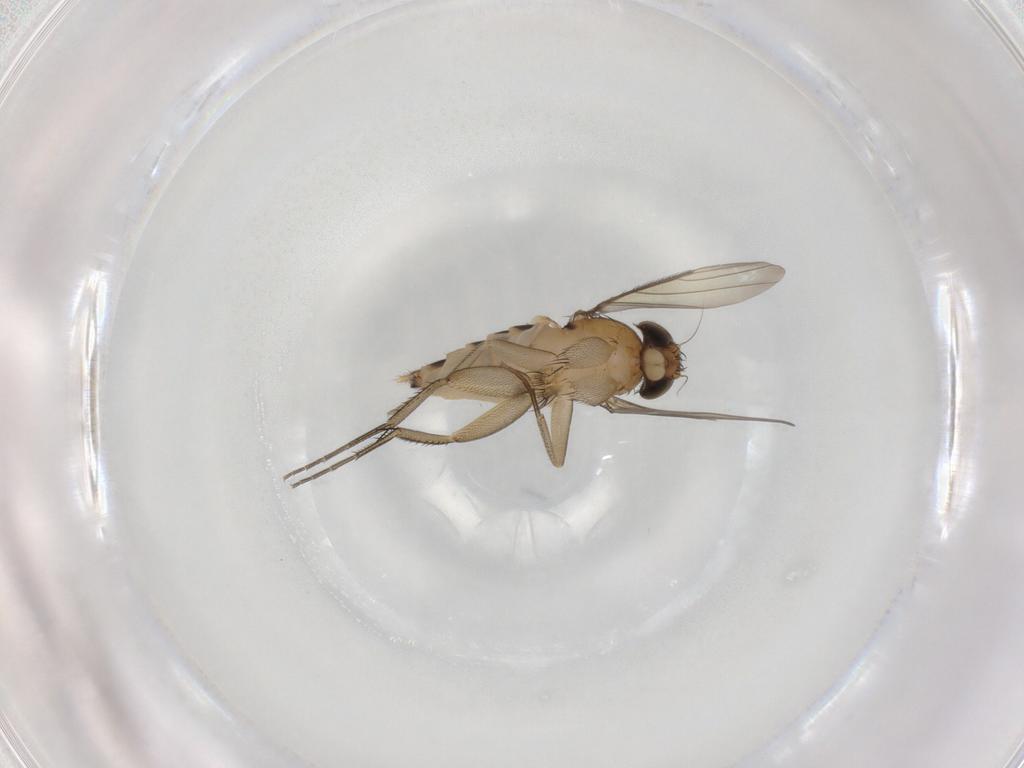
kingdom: Animalia
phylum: Arthropoda
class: Insecta
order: Diptera
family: Phoridae
